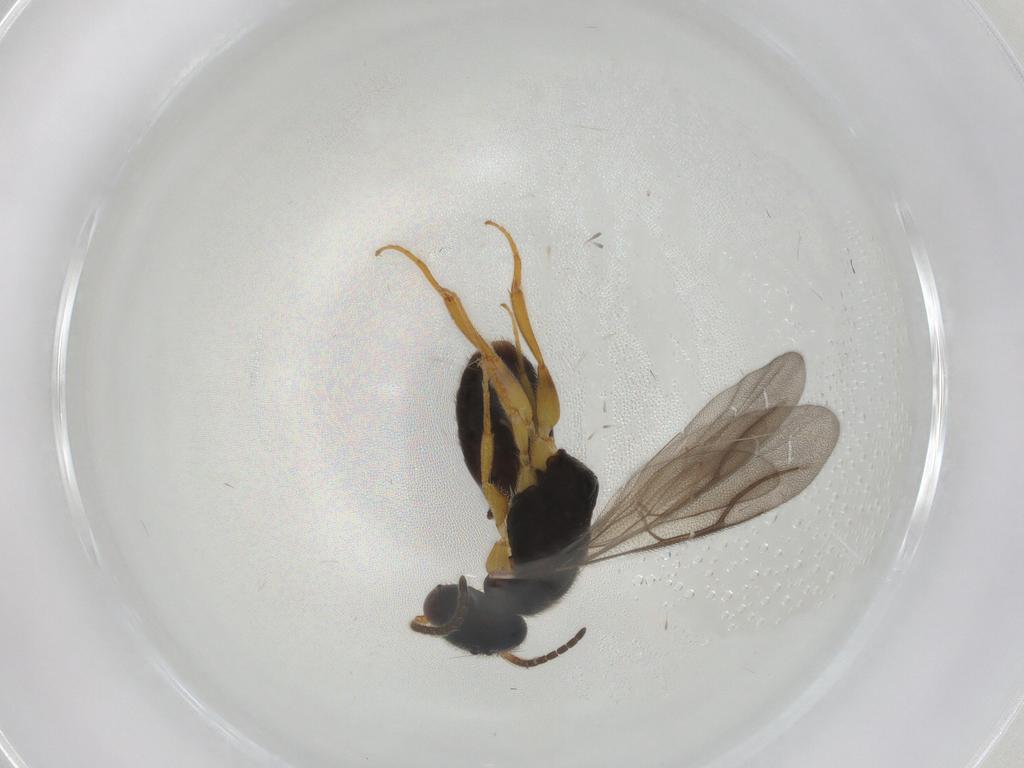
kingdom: Animalia
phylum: Arthropoda
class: Insecta
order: Hymenoptera
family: Bethylidae
